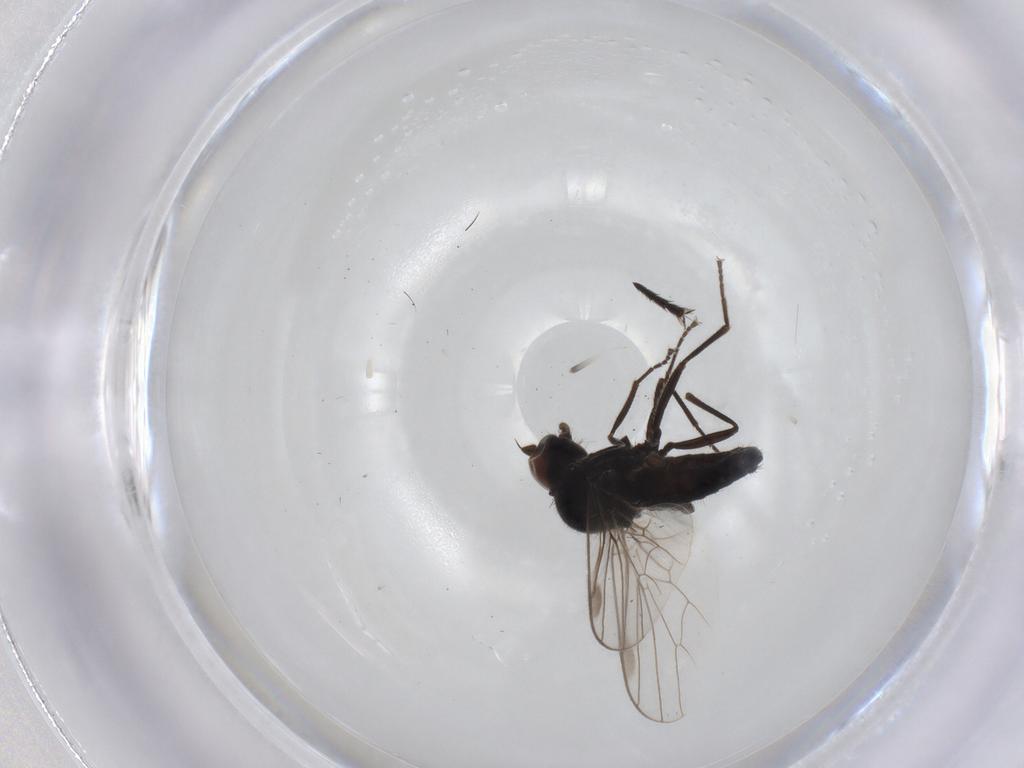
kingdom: Animalia
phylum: Arthropoda
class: Insecta
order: Diptera
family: Hybotidae
